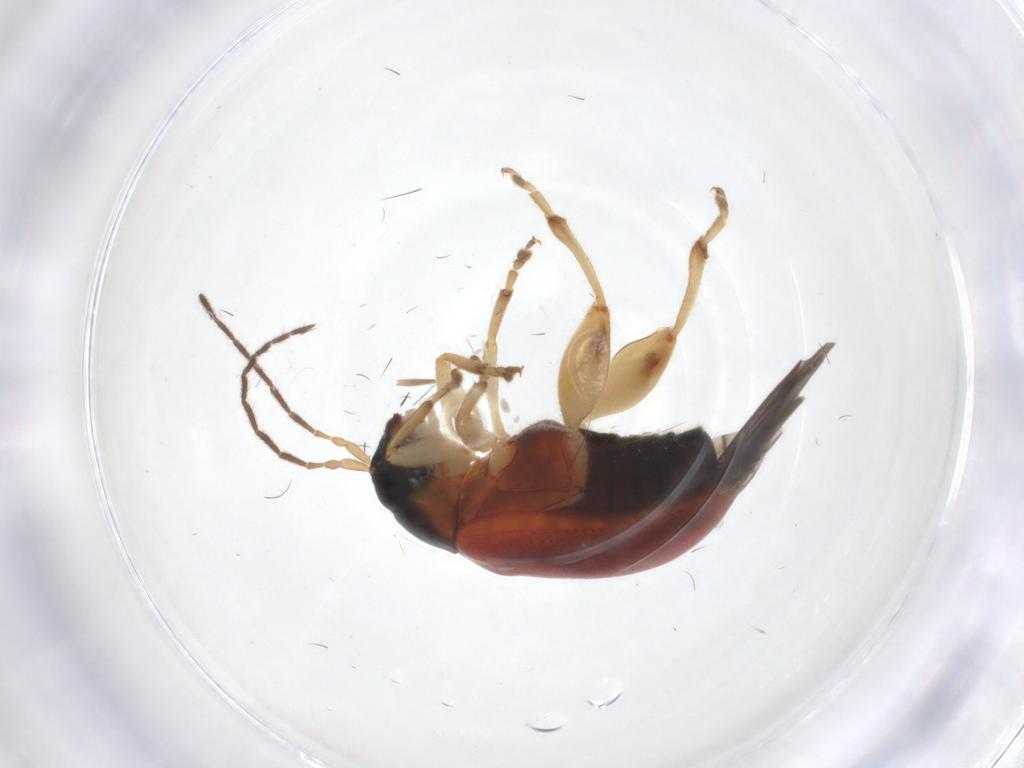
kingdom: Animalia
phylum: Arthropoda
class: Insecta
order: Coleoptera
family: Chrysomelidae
